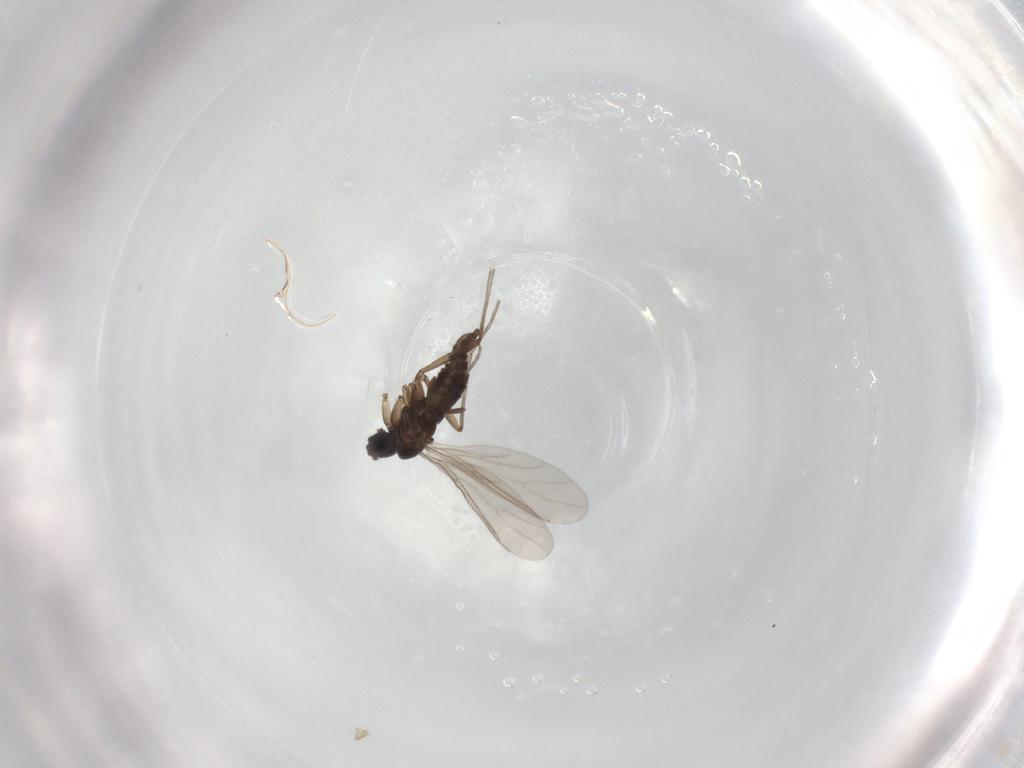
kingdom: Animalia
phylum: Arthropoda
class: Insecta
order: Diptera
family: Sciaridae
